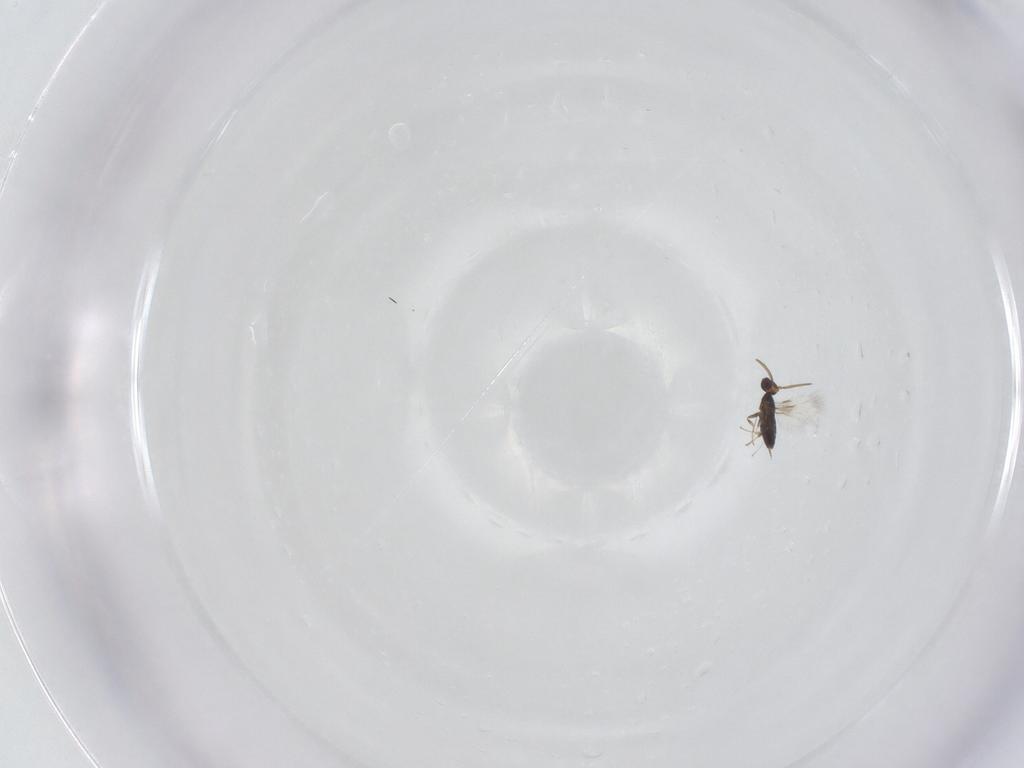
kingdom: Animalia
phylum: Arthropoda
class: Insecta
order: Hymenoptera
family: Signiphoridae
